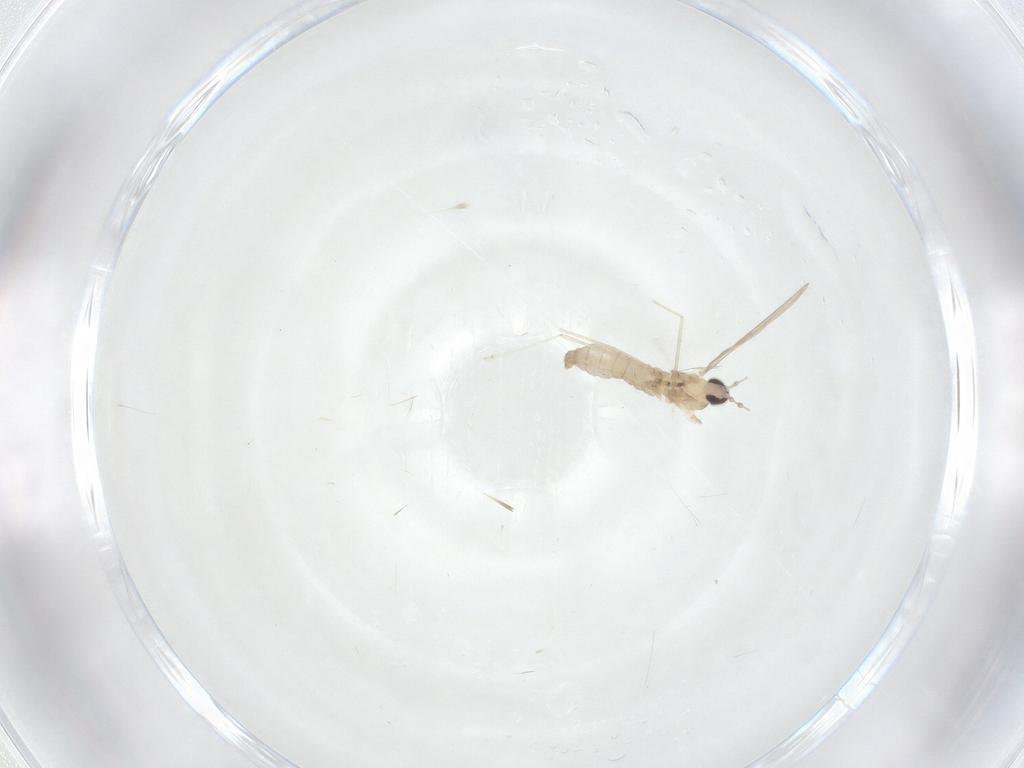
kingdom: Animalia
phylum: Arthropoda
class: Insecta
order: Diptera
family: Cecidomyiidae
